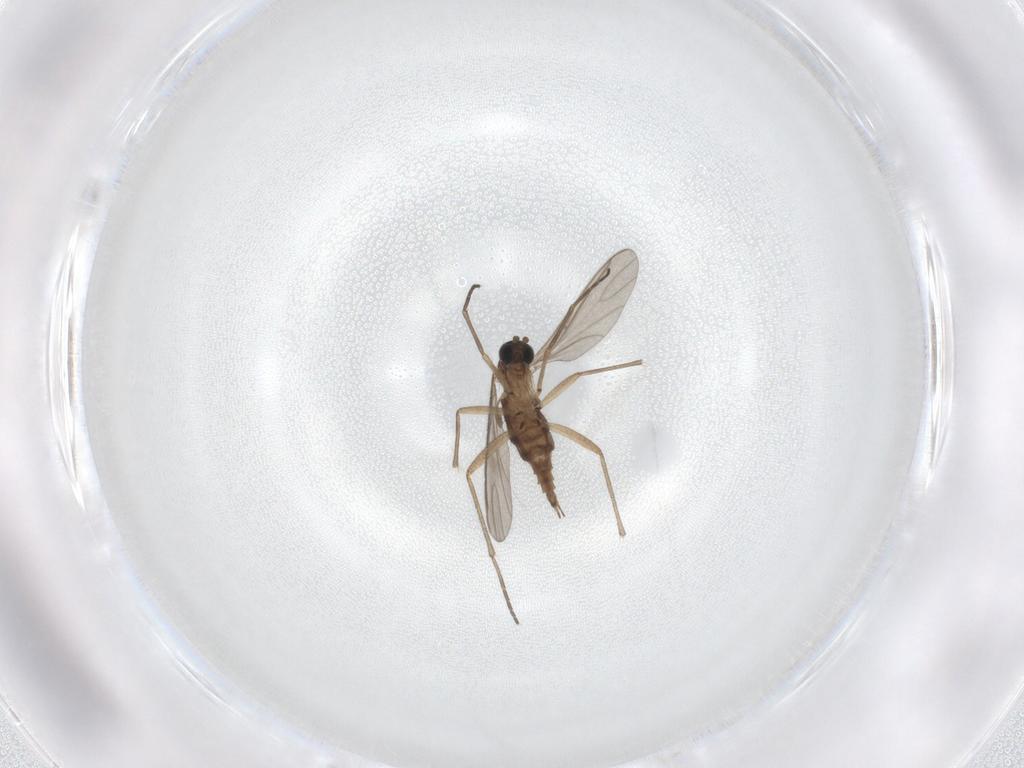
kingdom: Animalia
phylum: Arthropoda
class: Insecta
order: Diptera
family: Sciaridae
